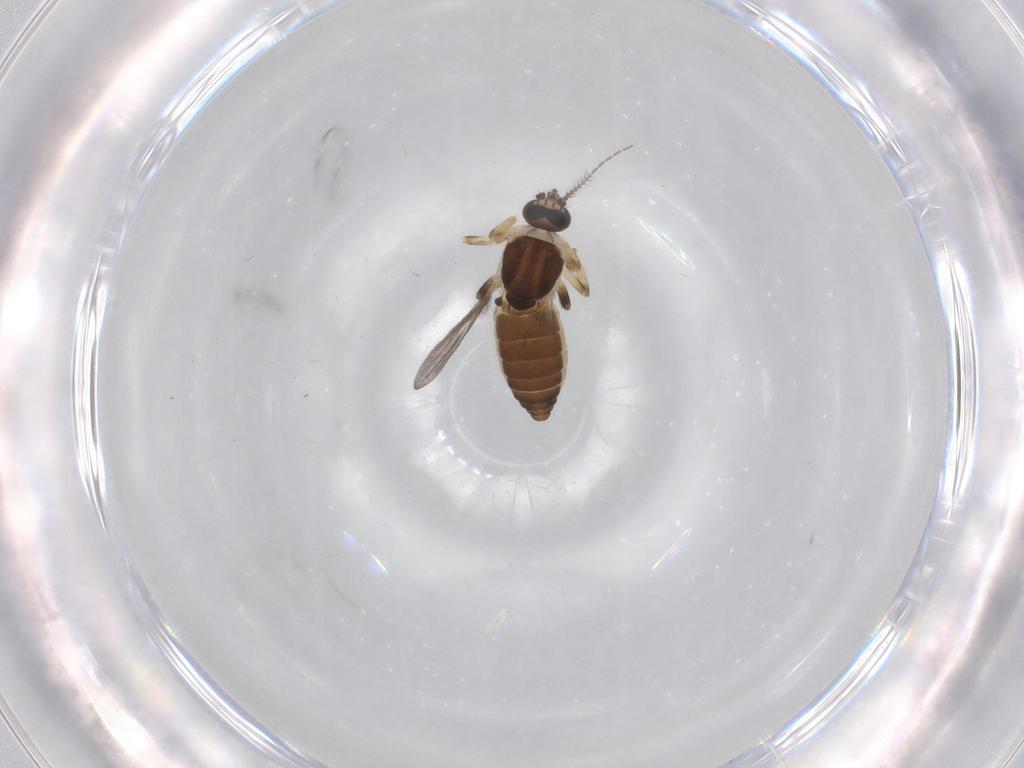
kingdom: Animalia
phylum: Arthropoda
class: Insecta
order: Diptera
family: Ceratopogonidae
